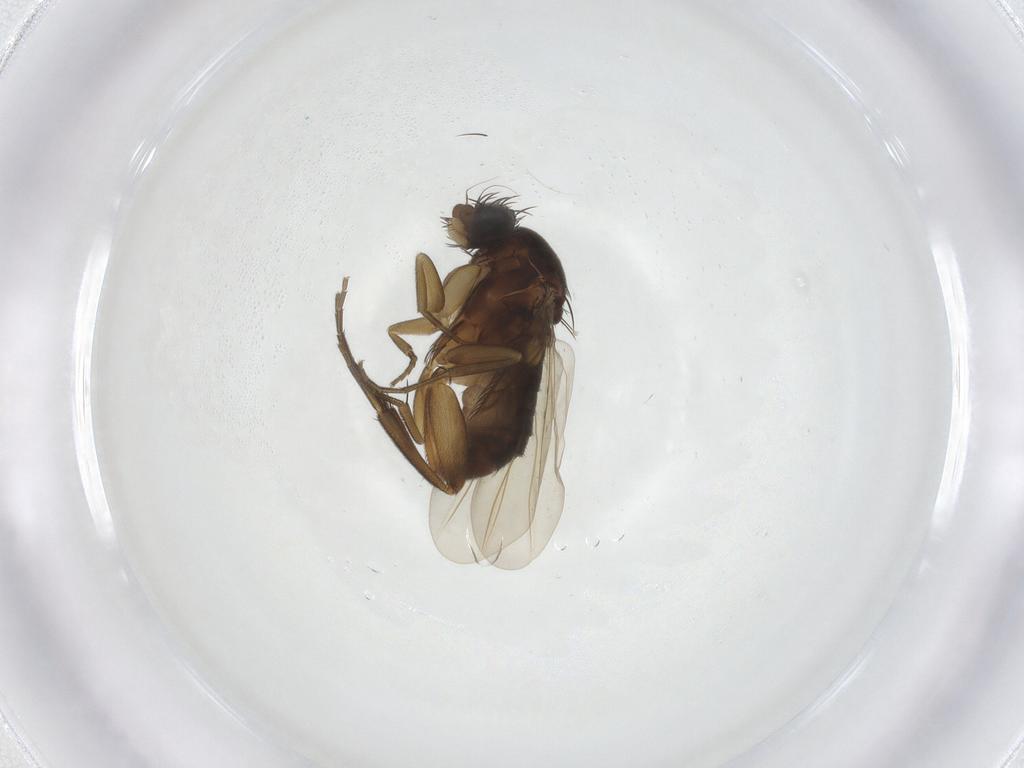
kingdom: Animalia
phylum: Arthropoda
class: Insecta
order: Diptera
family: Phoridae
